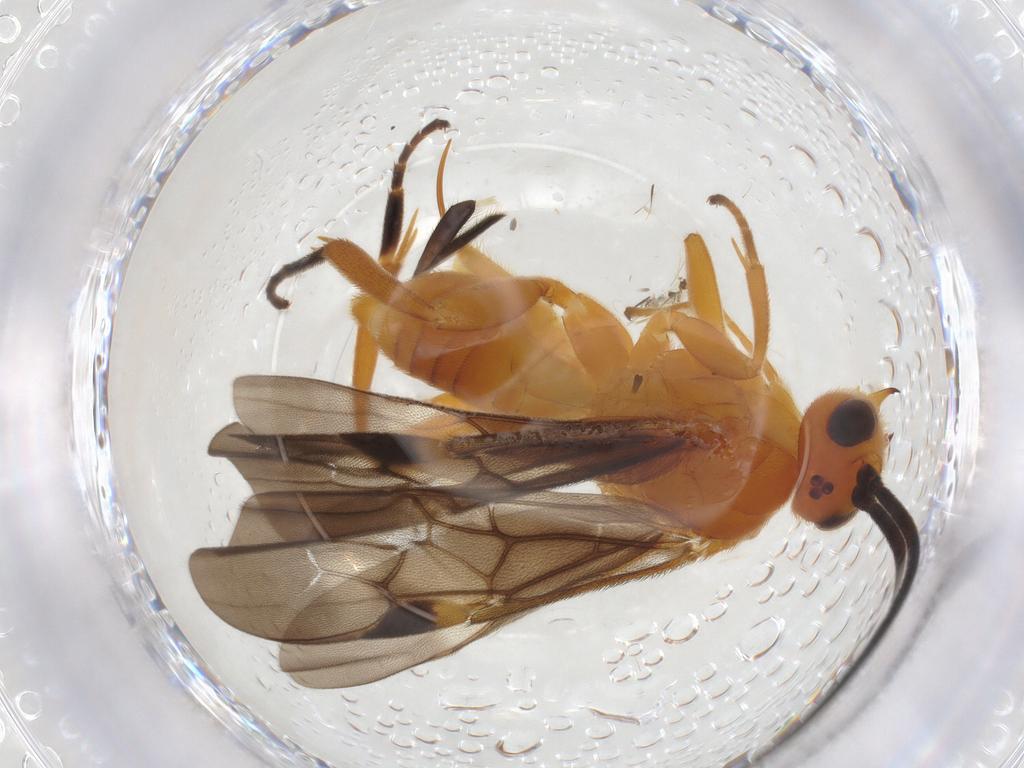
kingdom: Animalia
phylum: Arthropoda
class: Insecta
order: Hymenoptera
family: Braconidae
